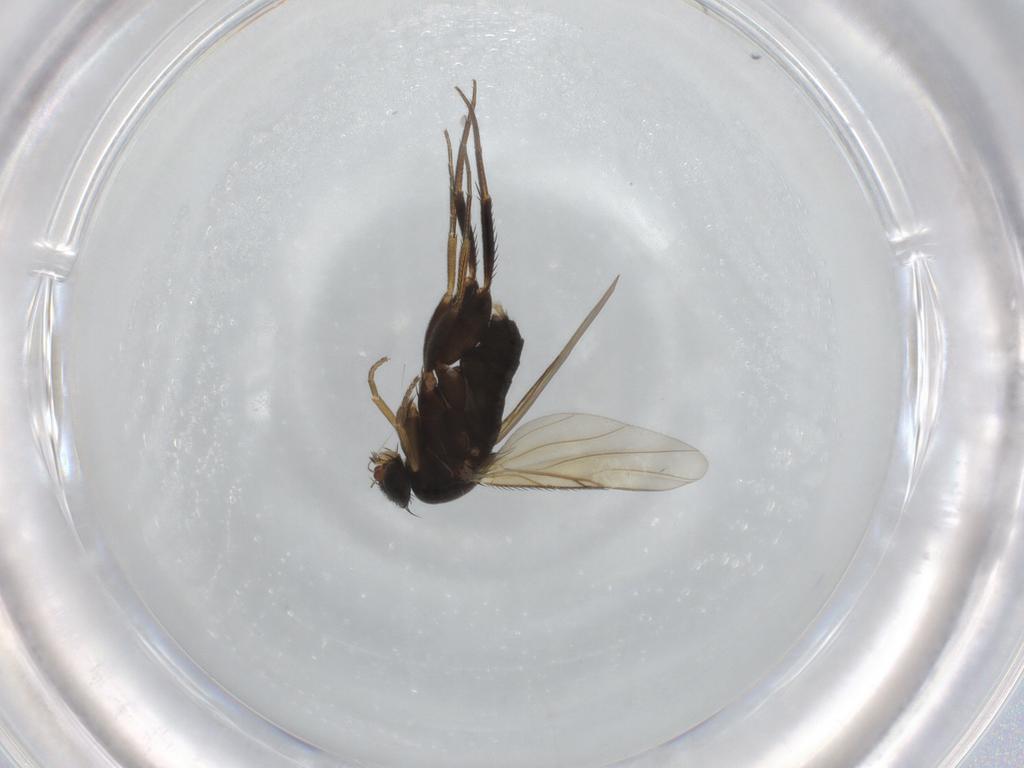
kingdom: Animalia
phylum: Arthropoda
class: Insecta
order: Diptera
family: Phoridae
